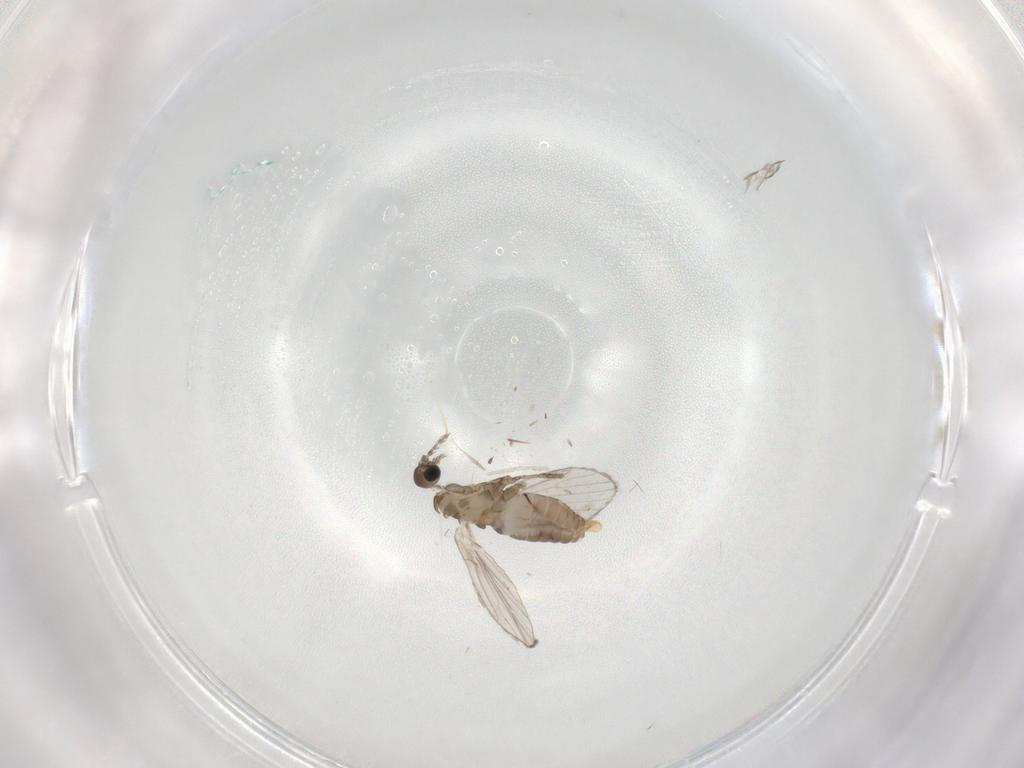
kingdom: Animalia
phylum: Arthropoda
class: Insecta
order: Diptera
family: Psychodidae
